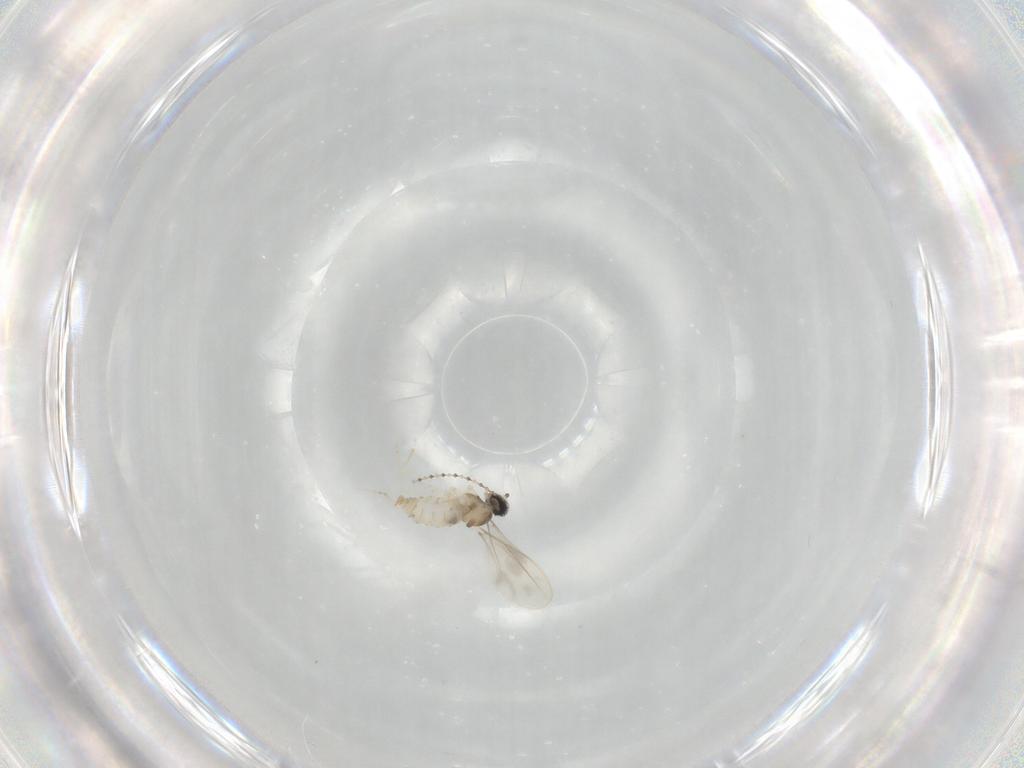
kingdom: Animalia
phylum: Arthropoda
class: Insecta
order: Diptera
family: Cecidomyiidae
